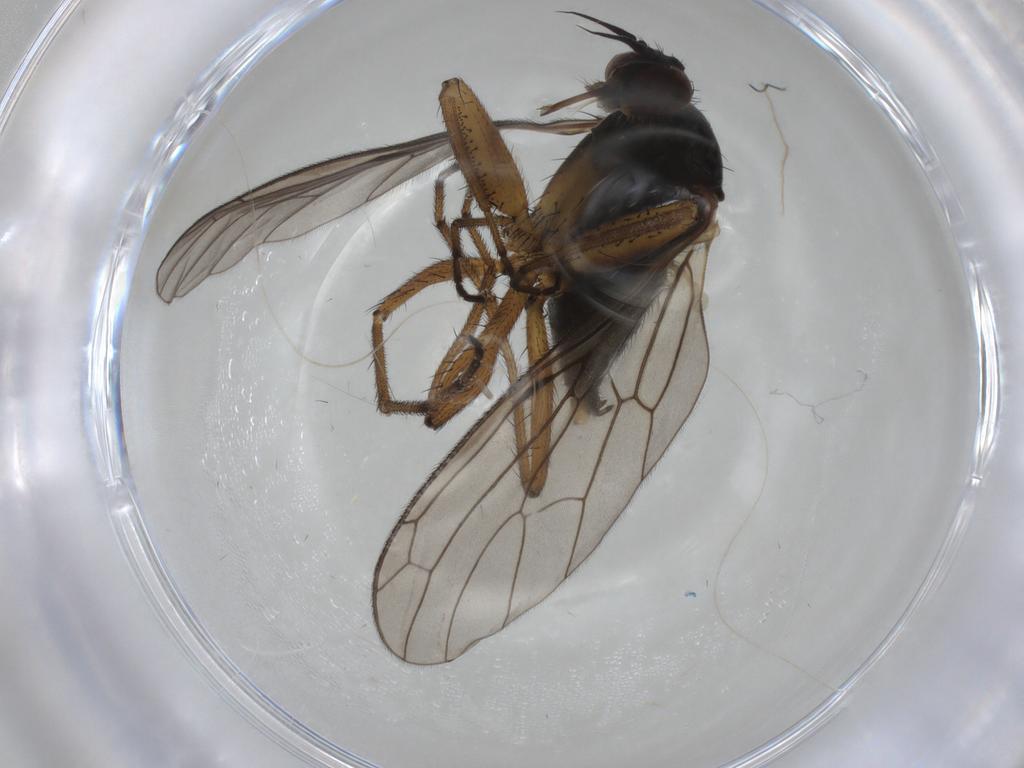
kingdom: Animalia
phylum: Arthropoda
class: Insecta
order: Diptera
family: Empididae
